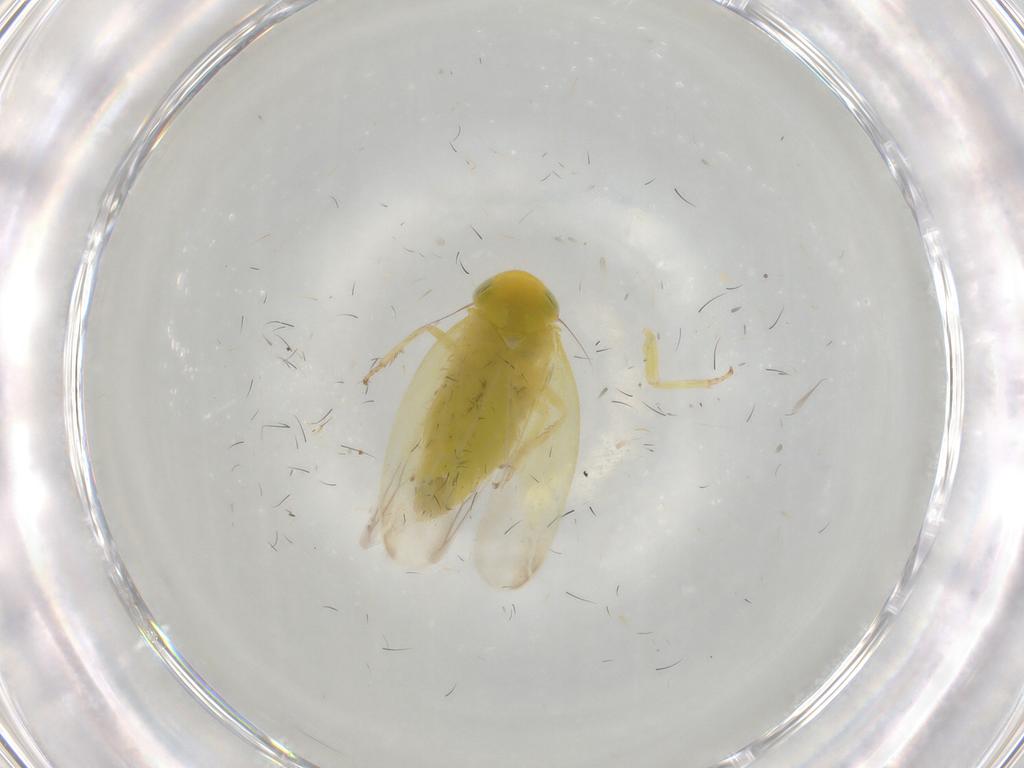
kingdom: Animalia
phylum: Arthropoda
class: Insecta
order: Hemiptera
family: Cicadellidae
